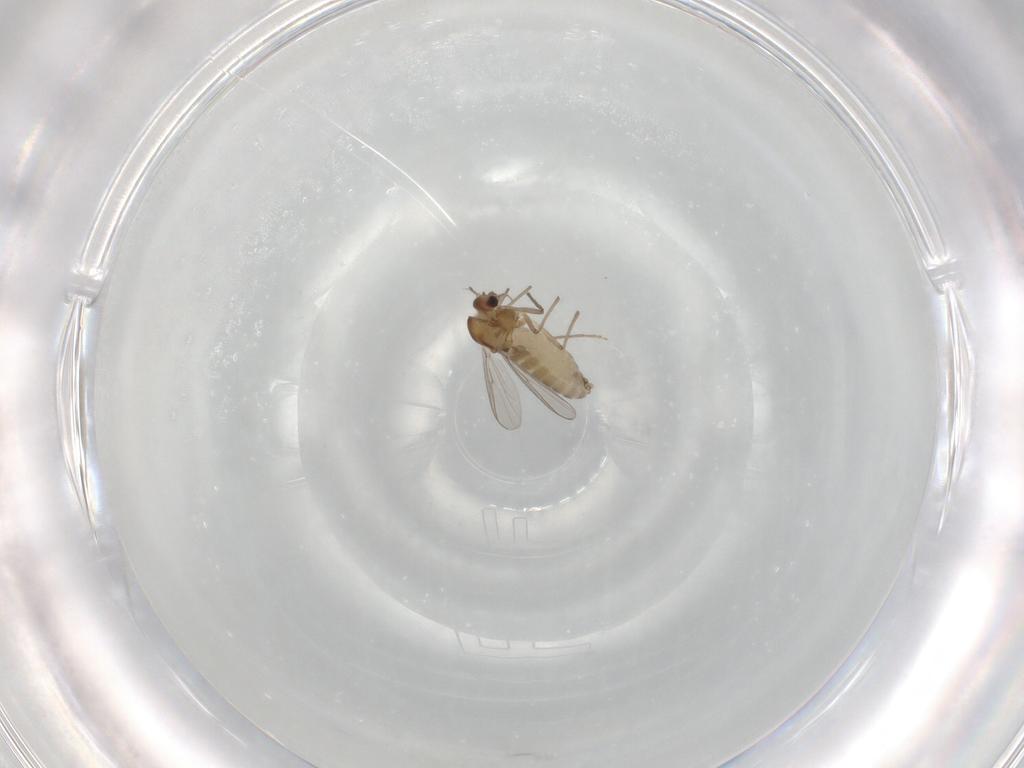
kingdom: Animalia
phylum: Arthropoda
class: Insecta
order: Diptera
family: Chironomidae
